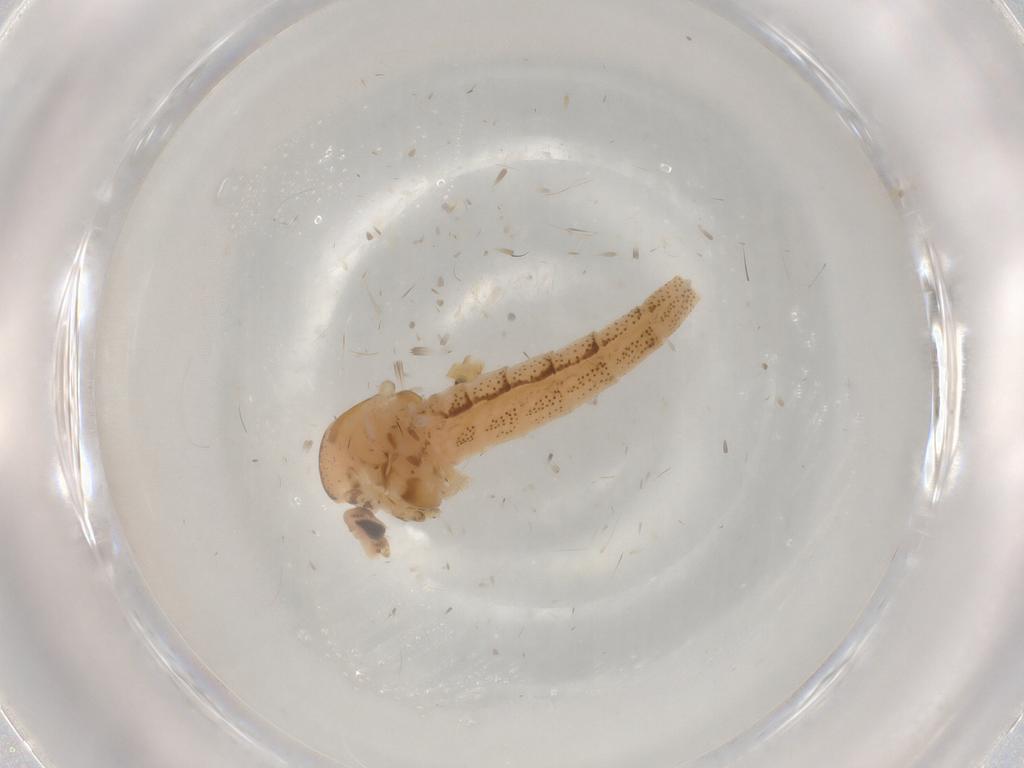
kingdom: Animalia
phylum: Arthropoda
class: Insecta
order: Diptera
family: Chaoboridae
